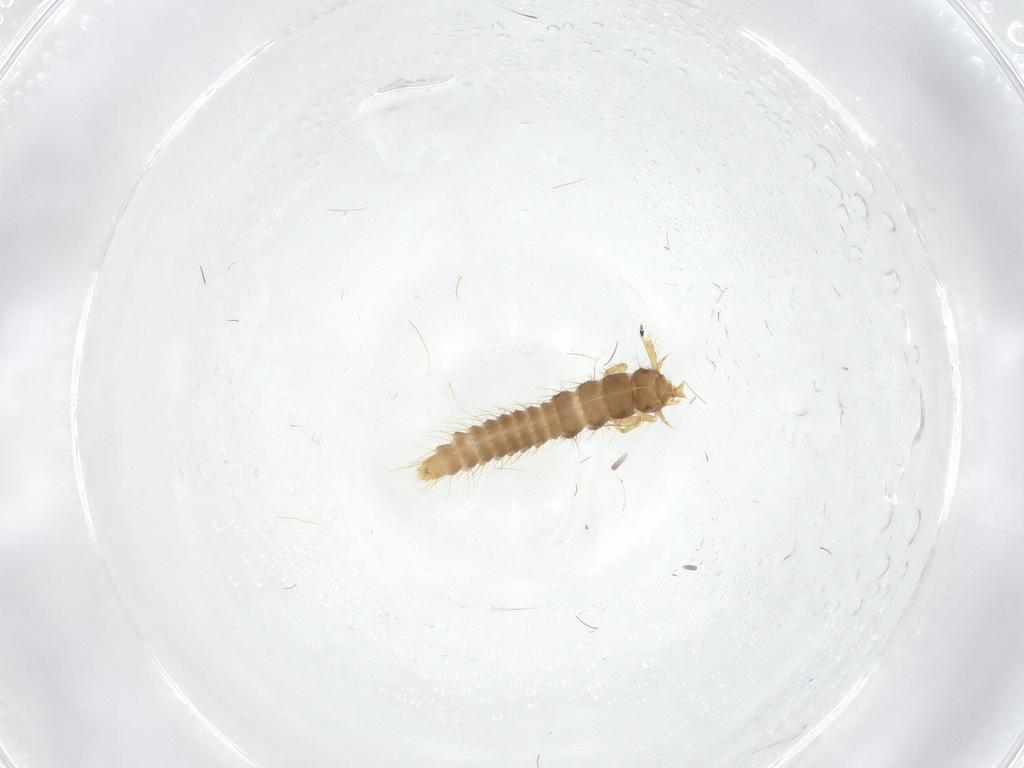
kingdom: Animalia
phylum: Arthropoda
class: Insecta
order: Coleoptera
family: Staphylinidae
